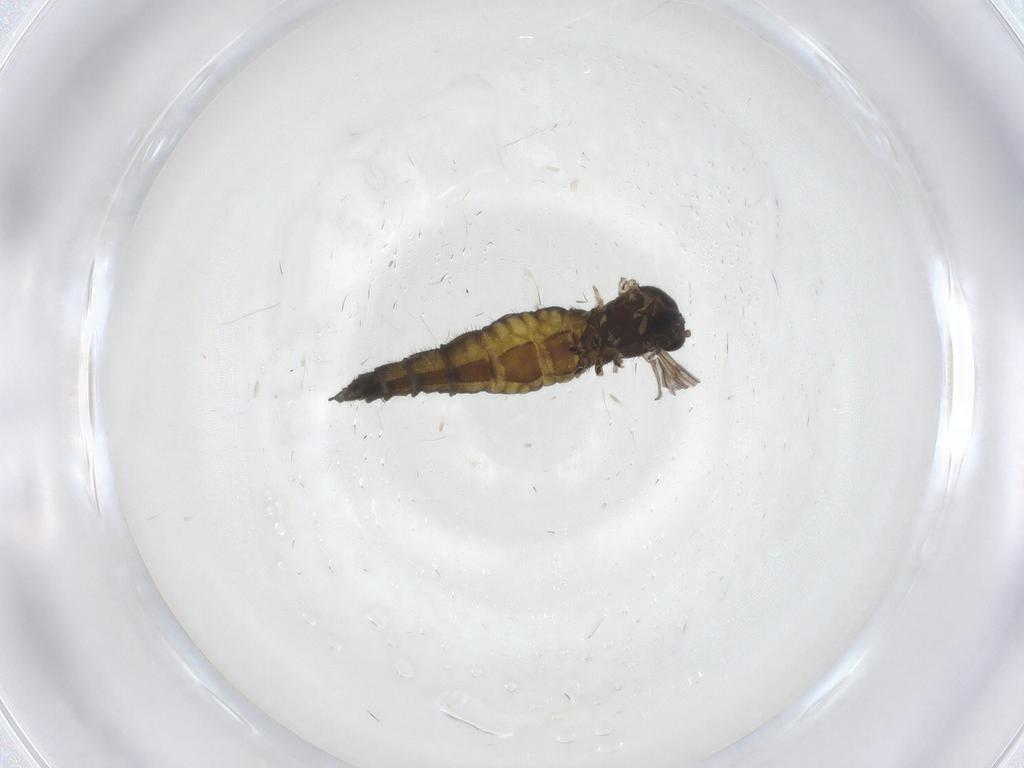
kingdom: Animalia
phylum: Arthropoda
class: Insecta
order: Diptera
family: Sciaridae
